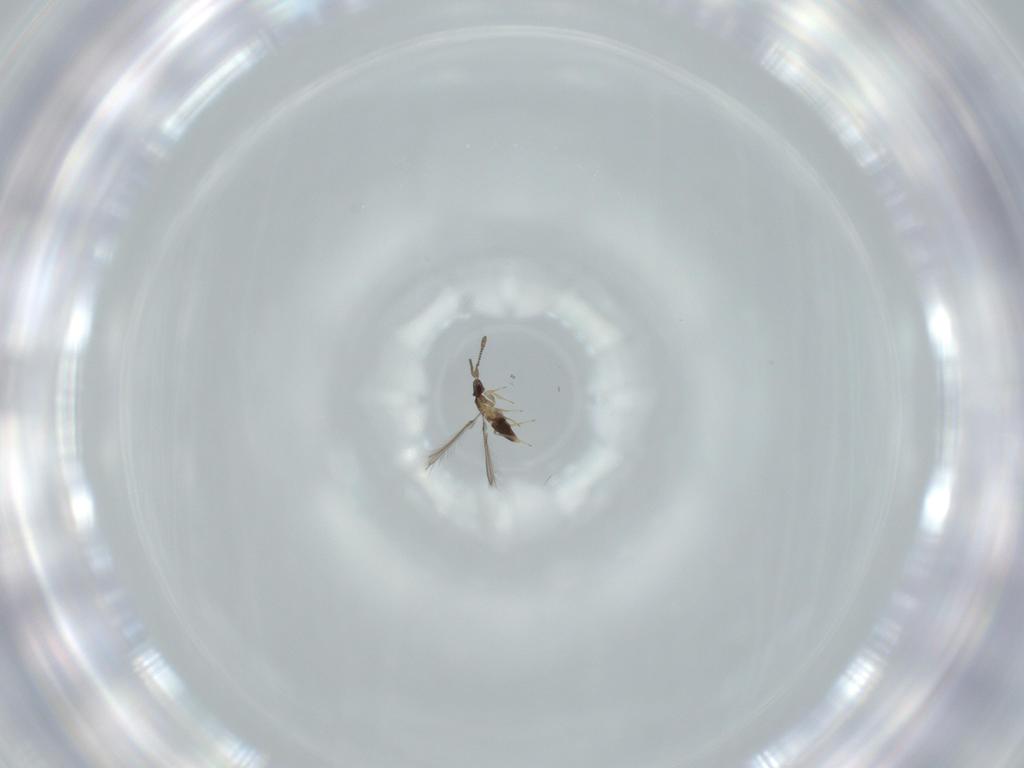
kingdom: Animalia
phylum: Arthropoda
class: Insecta
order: Hymenoptera
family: Mymaridae
